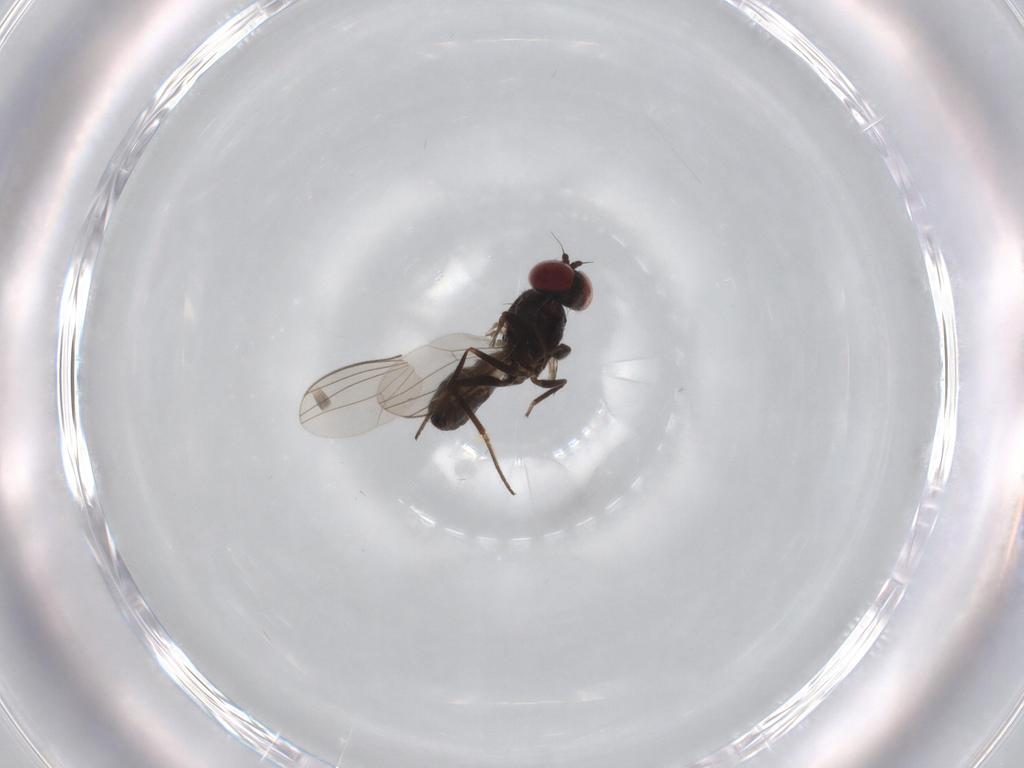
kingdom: Animalia
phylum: Arthropoda
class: Insecta
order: Diptera
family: Dolichopodidae
